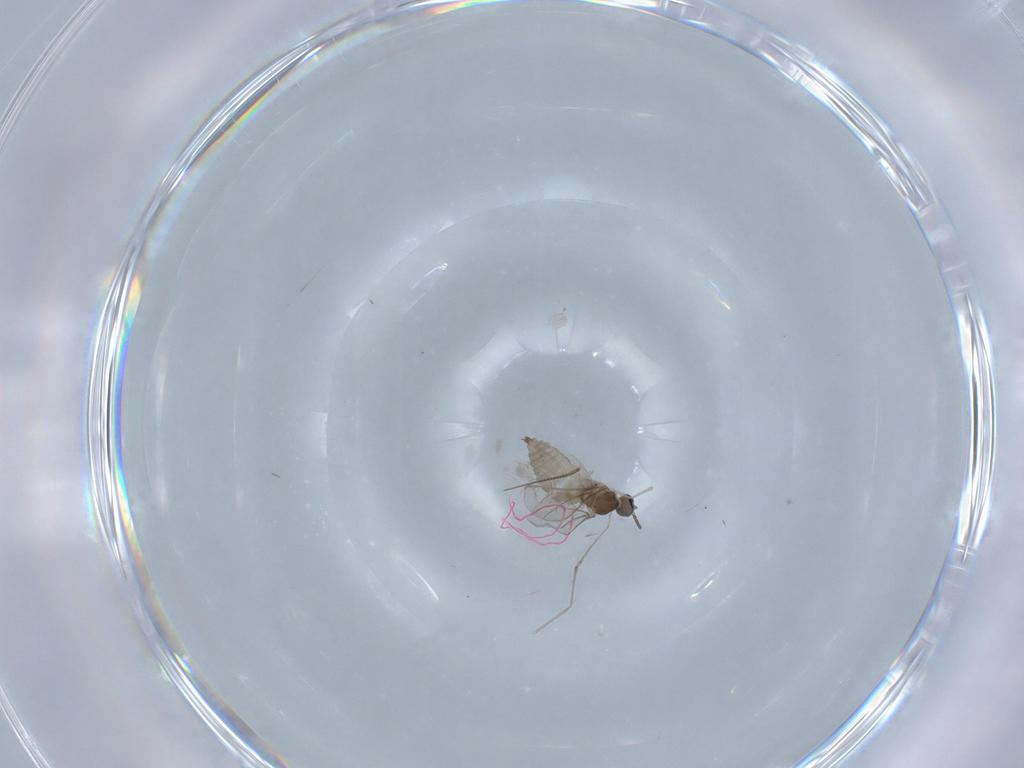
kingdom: Animalia
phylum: Arthropoda
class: Insecta
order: Diptera
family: Cecidomyiidae
